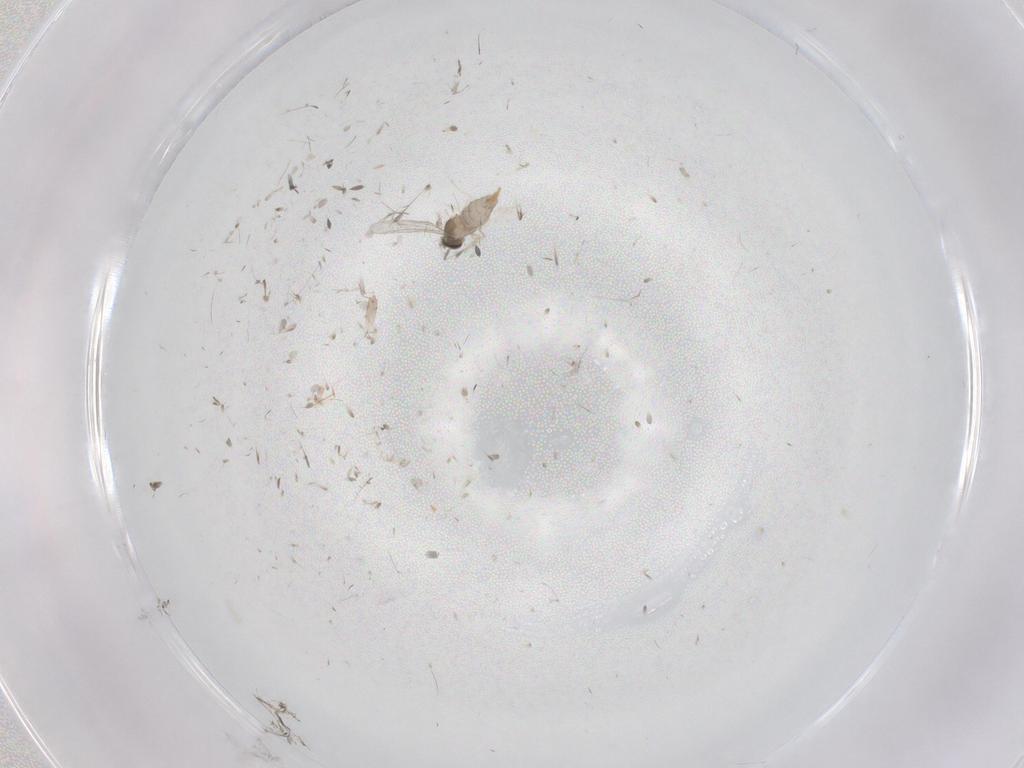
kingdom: Animalia
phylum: Arthropoda
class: Insecta
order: Diptera
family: Cecidomyiidae
